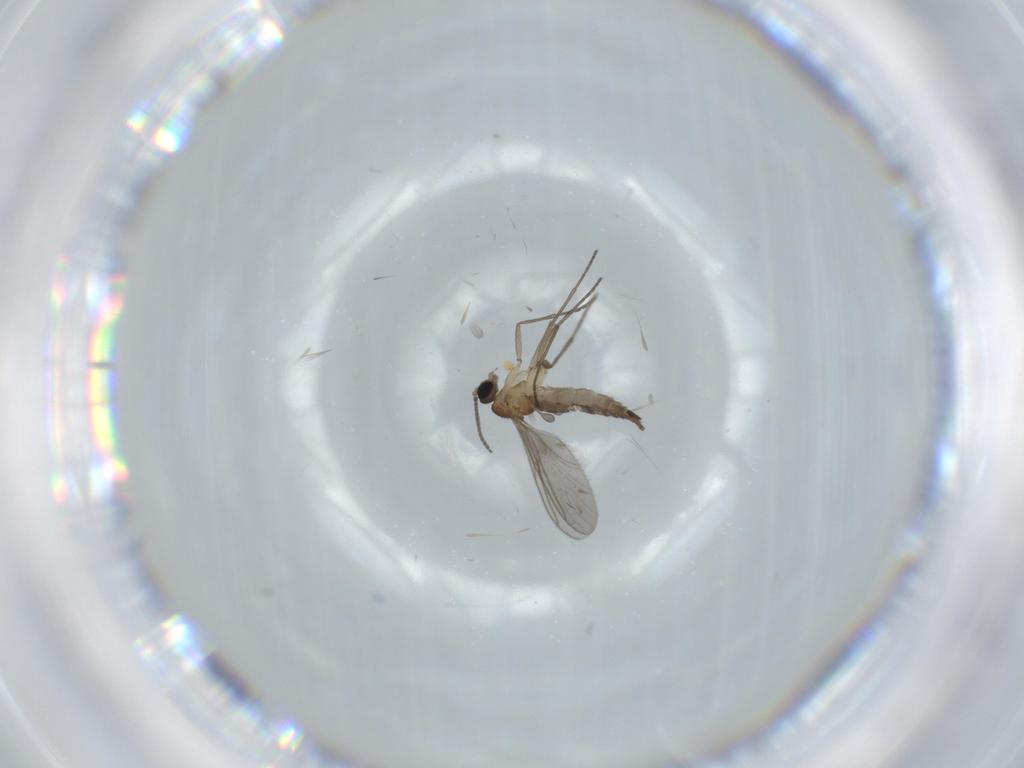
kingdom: Animalia
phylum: Arthropoda
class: Insecta
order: Diptera
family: Sciaridae
